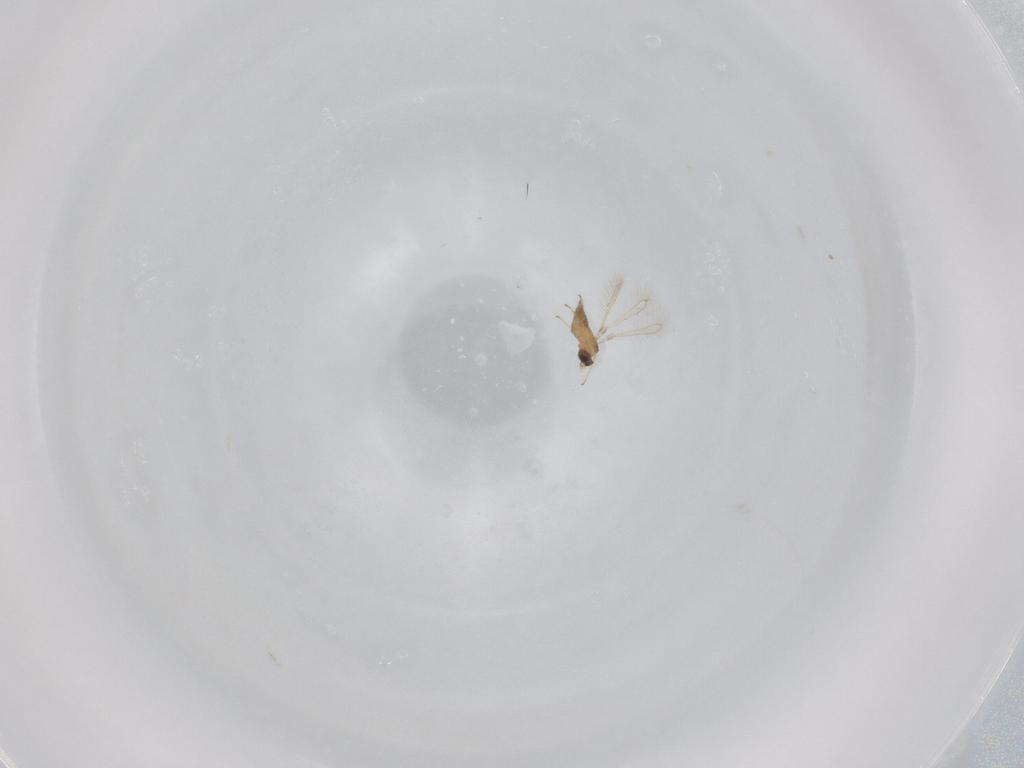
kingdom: Animalia
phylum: Arthropoda
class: Insecta
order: Hymenoptera
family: Mymaridae
